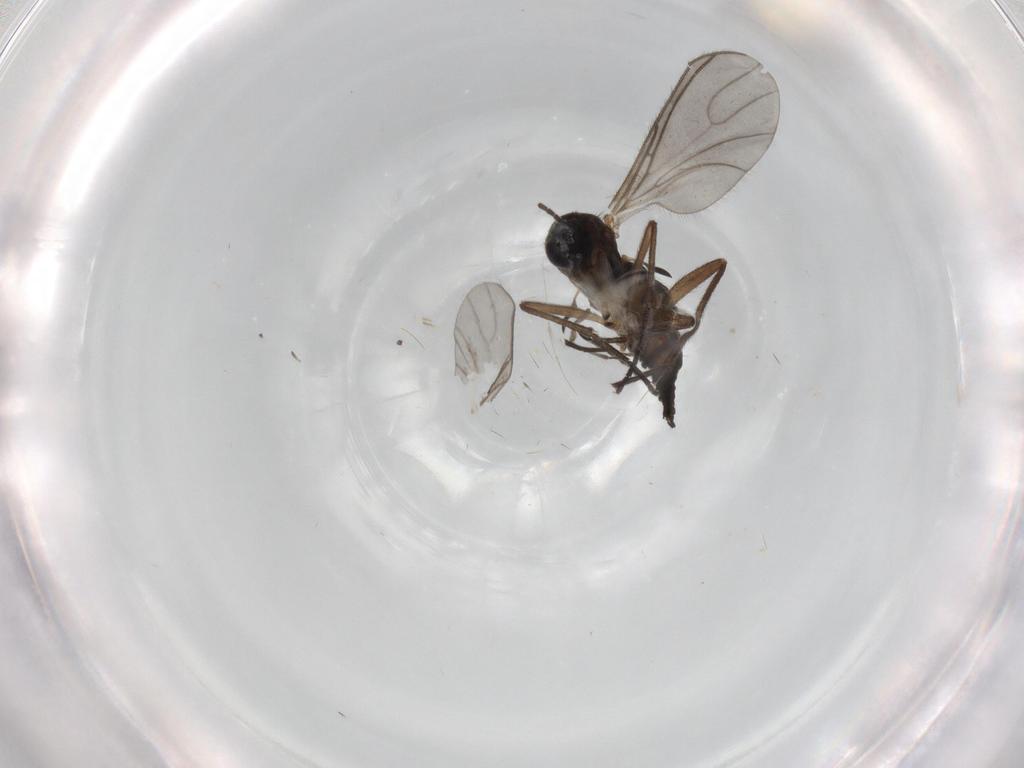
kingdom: Animalia
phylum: Arthropoda
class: Insecta
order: Diptera
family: Sciaridae
